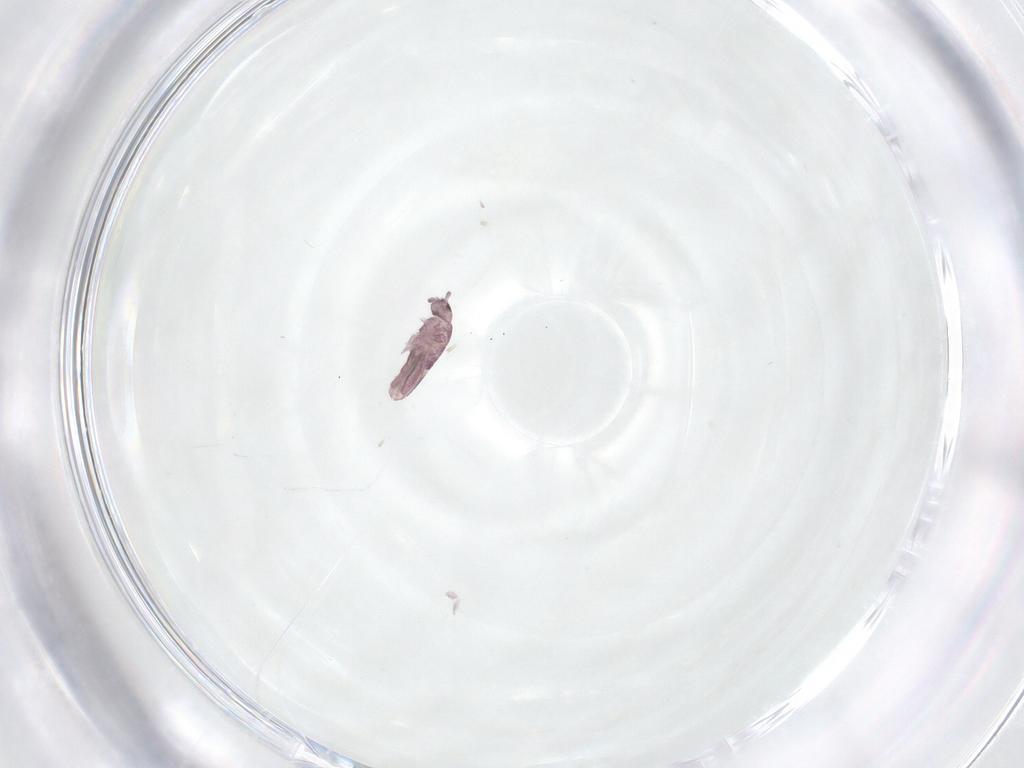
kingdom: Animalia
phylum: Arthropoda
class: Collembola
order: Entomobryomorpha
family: Entomobryidae
